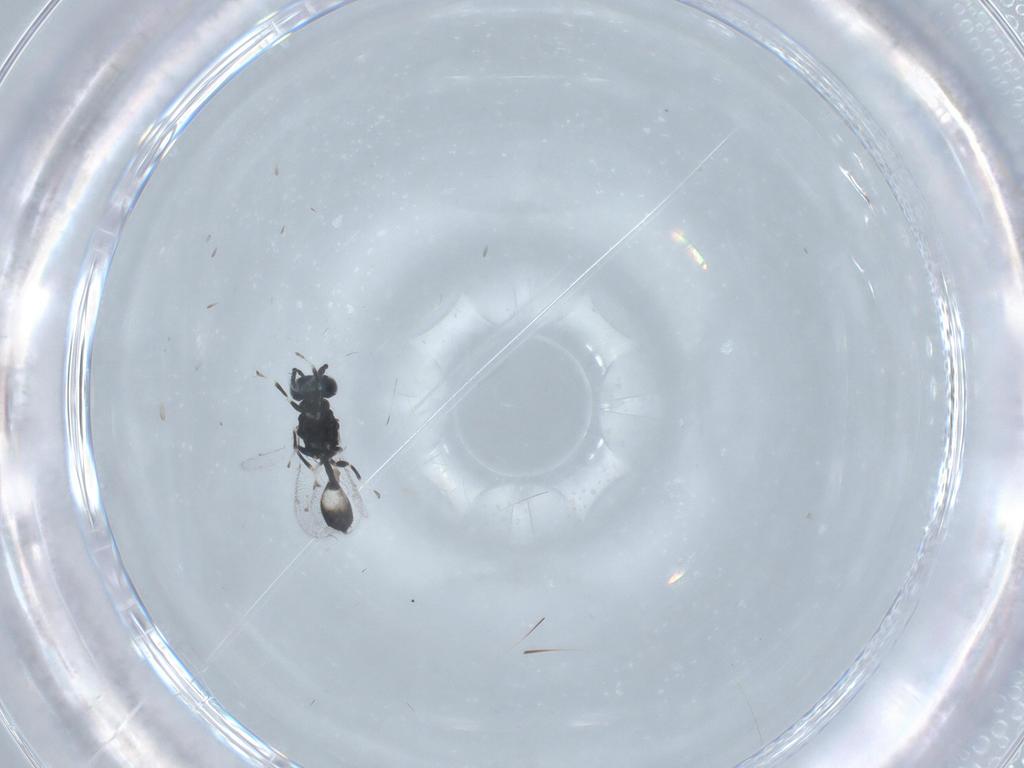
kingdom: Animalia
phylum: Arthropoda
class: Insecta
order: Hymenoptera
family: Eulophidae
